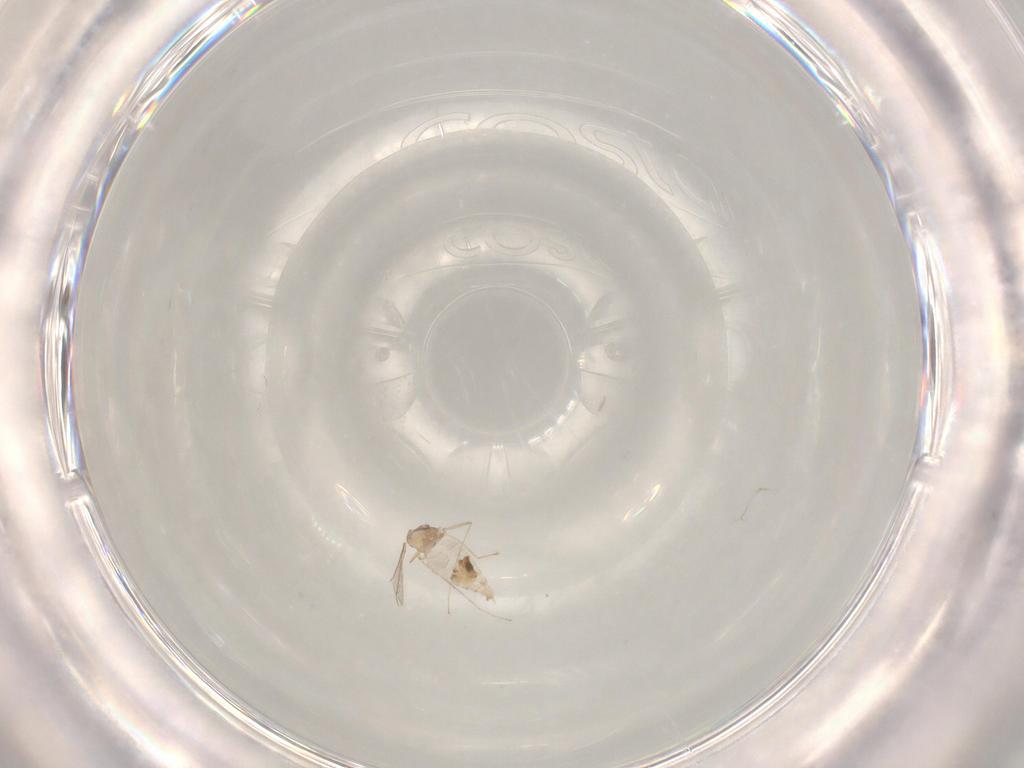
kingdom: Animalia
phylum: Arthropoda
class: Insecta
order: Diptera
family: Cecidomyiidae
